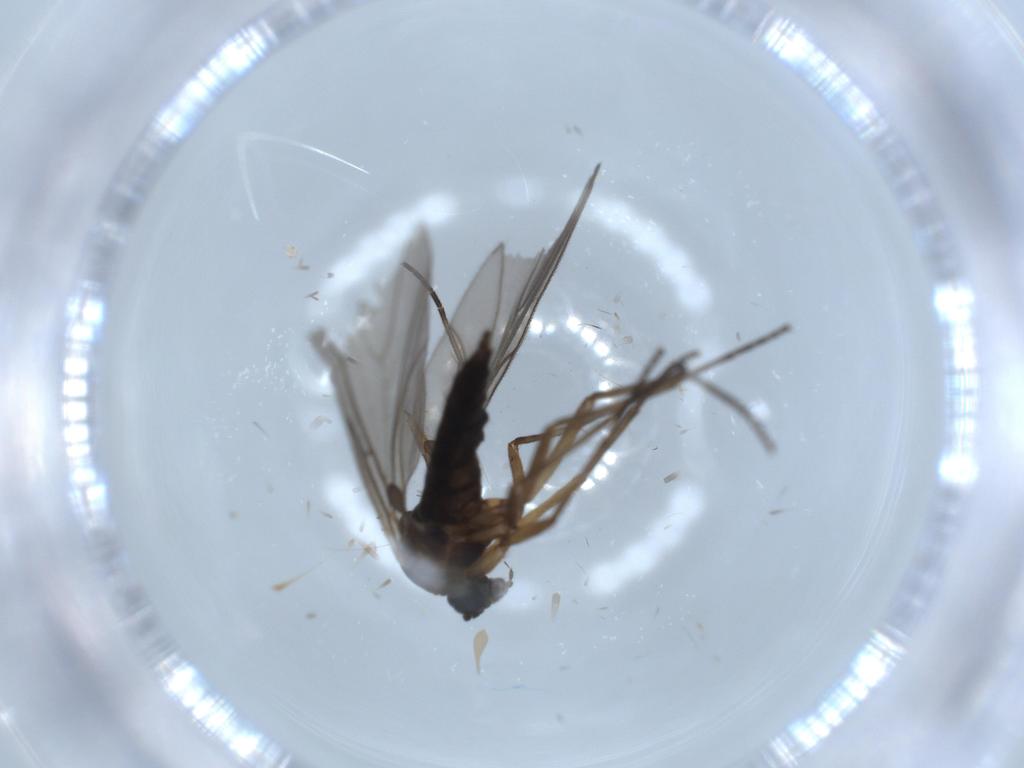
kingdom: Animalia
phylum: Arthropoda
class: Insecta
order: Diptera
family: Sciaridae
